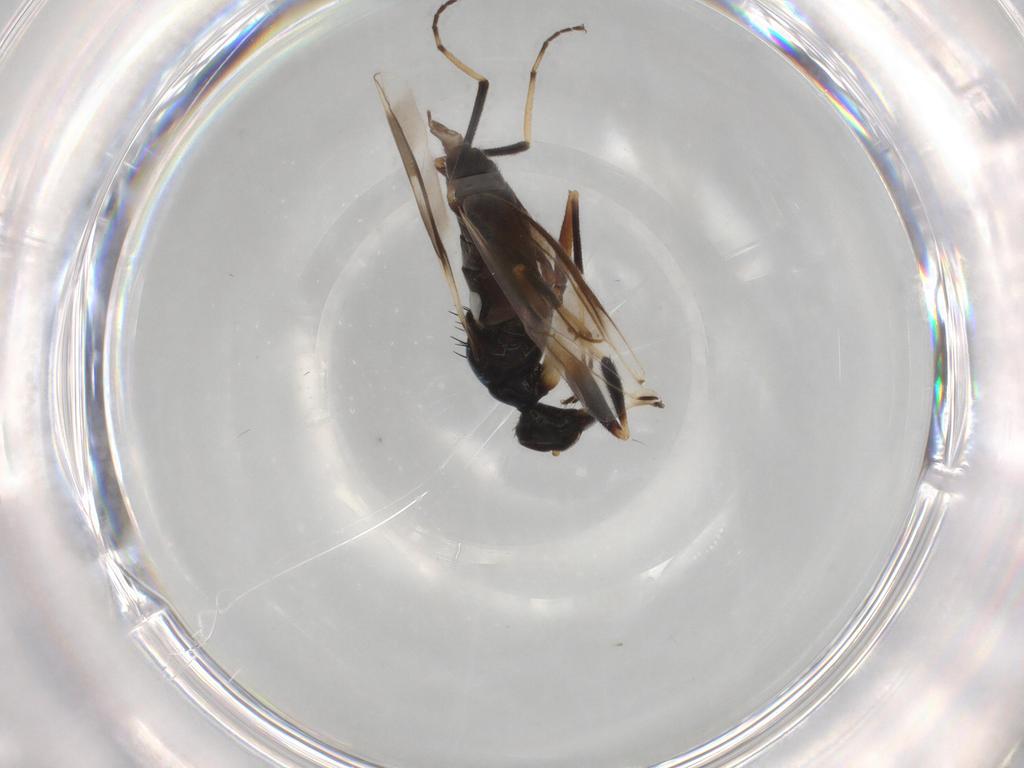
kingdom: Animalia
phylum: Arthropoda
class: Insecta
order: Diptera
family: Hybotidae
